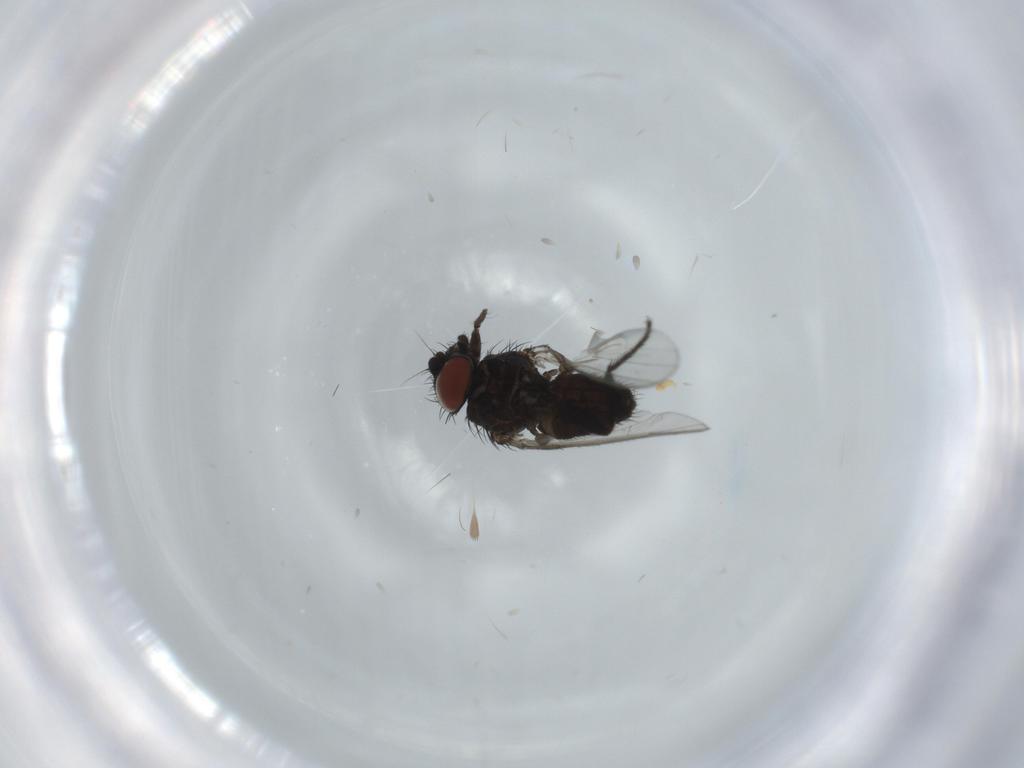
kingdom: Animalia
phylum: Arthropoda
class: Insecta
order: Diptera
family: Milichiidae
